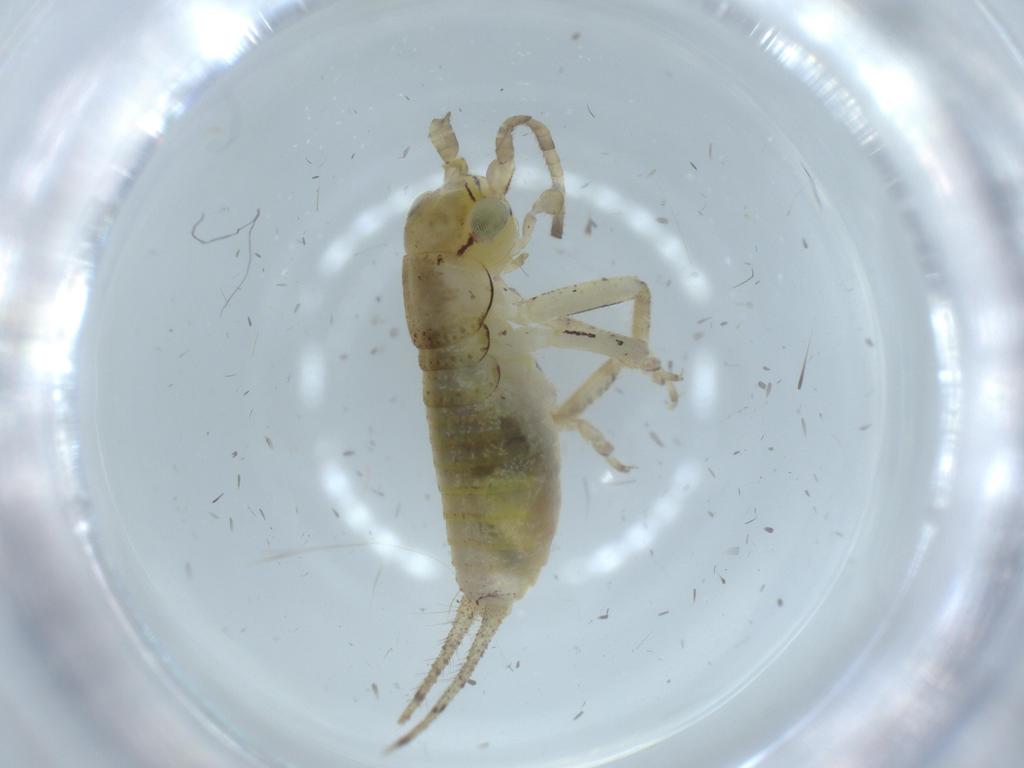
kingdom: Animalia
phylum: Arthropoda
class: Insecta
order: Orthoptera
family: Gryllidae
